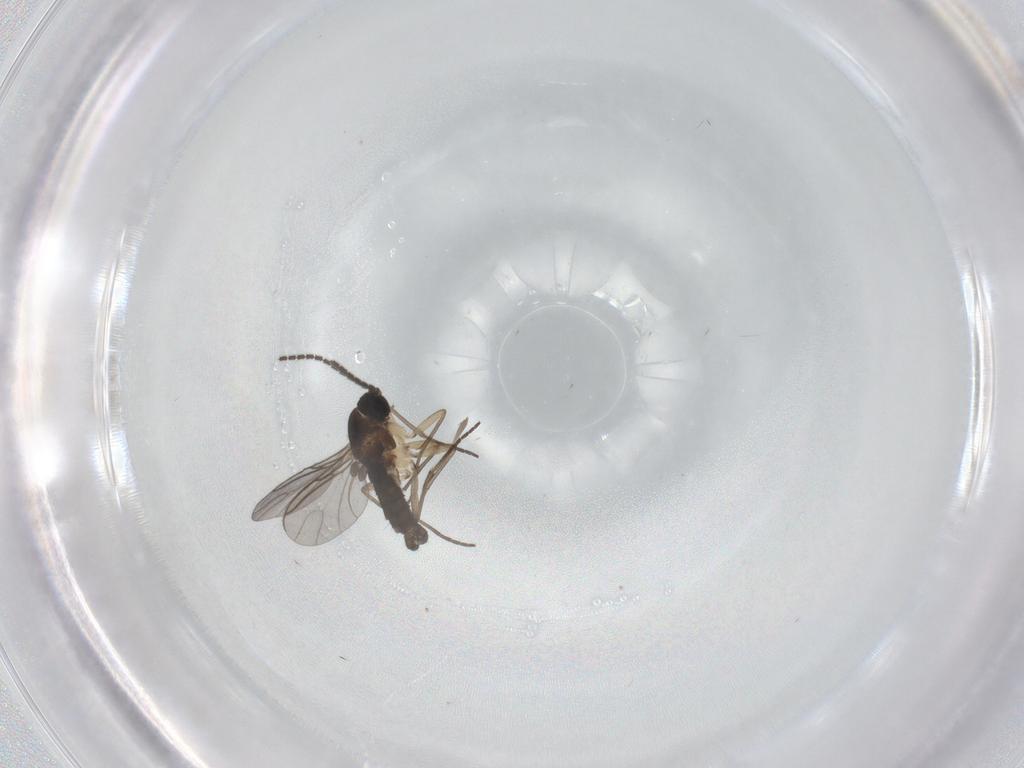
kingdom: Animalia
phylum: Arthropoda
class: Insecta
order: Diptera
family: Sciaridae
